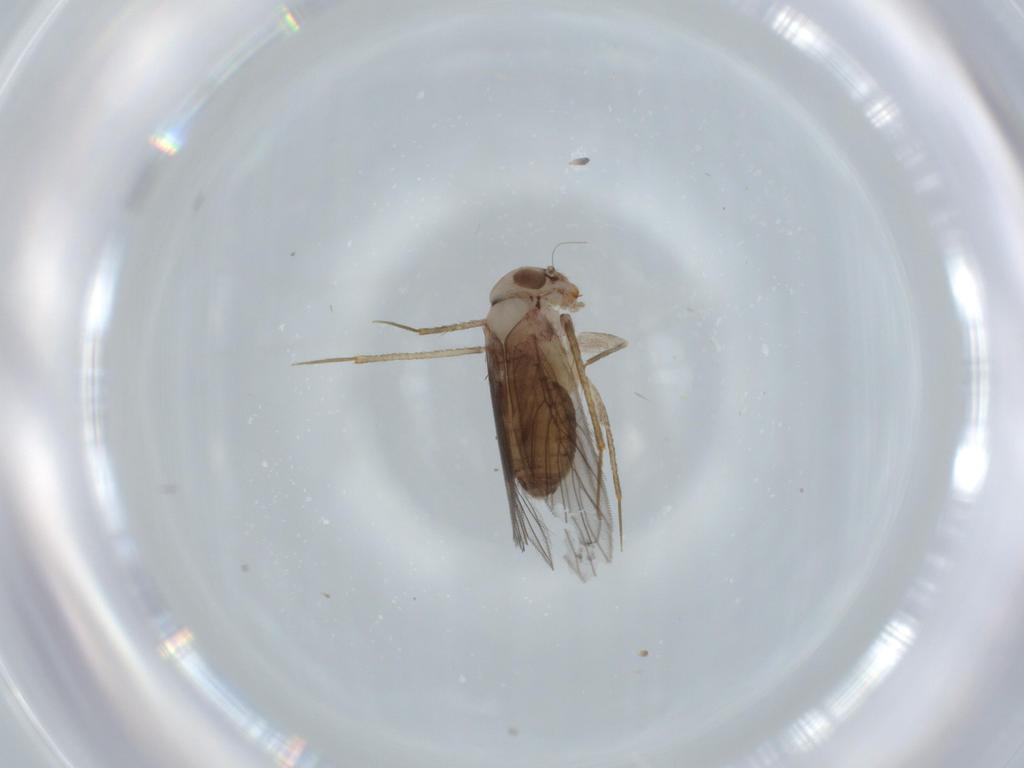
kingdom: Animalia
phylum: Arthropoda
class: Insecta
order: Psocodea
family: Lepidopsocidae
